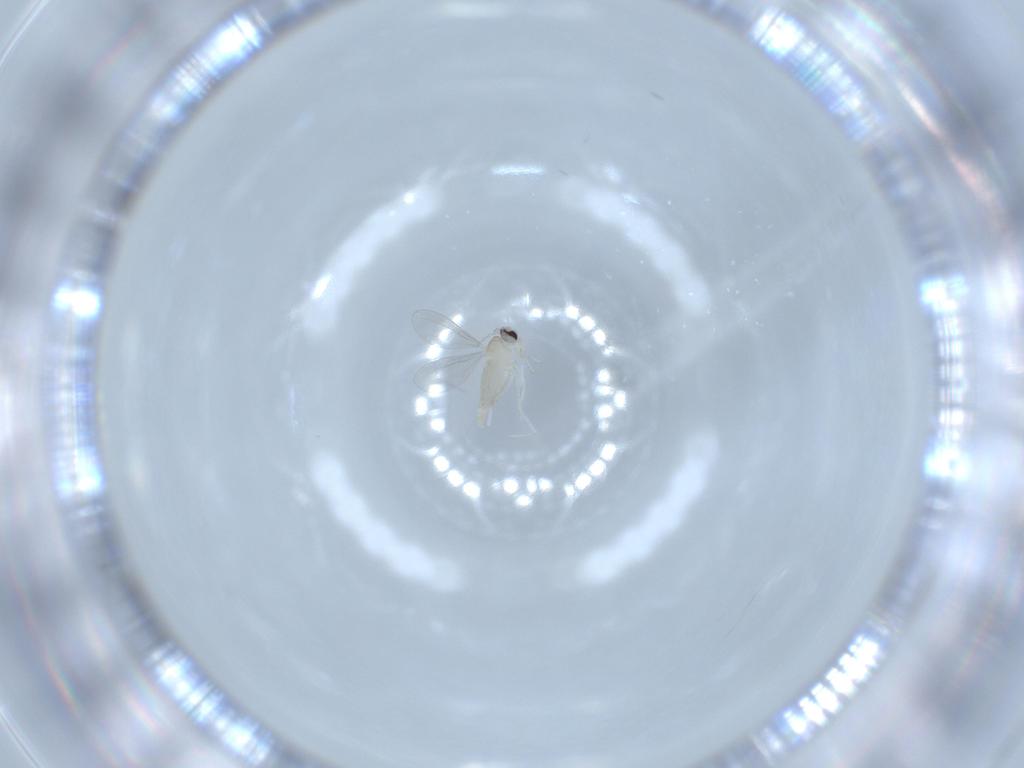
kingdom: Animalia
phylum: Arthropoda
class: Insecta
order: Diptera
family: Cecidomyiidae
